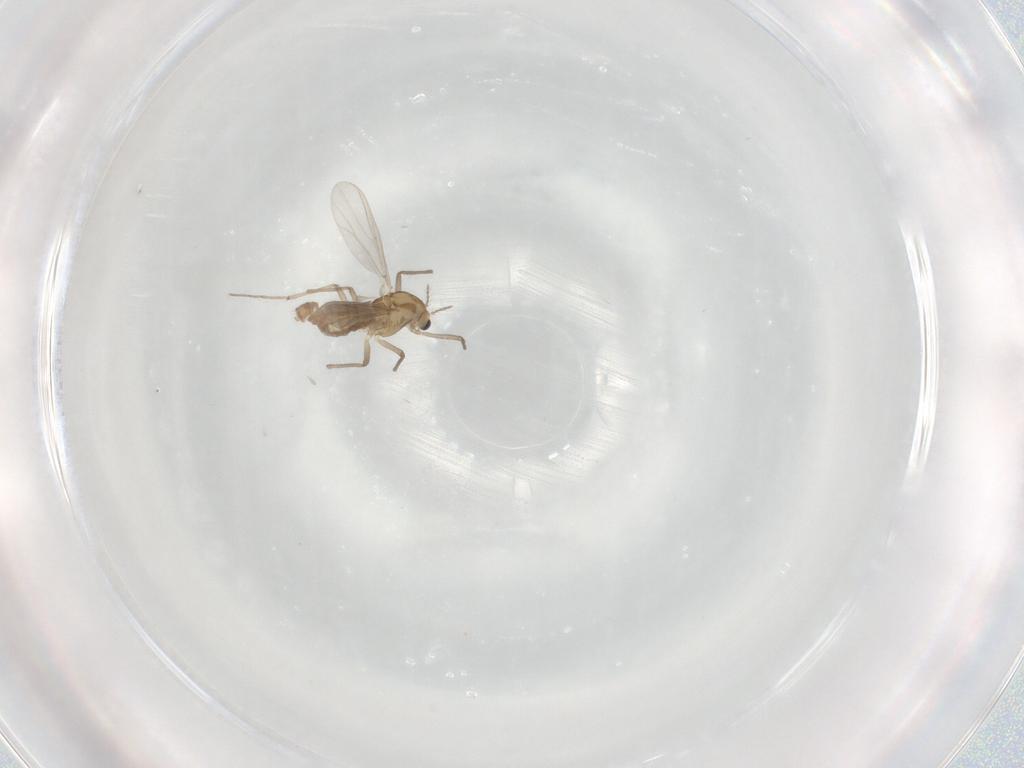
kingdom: Animalia
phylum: Arthropoda
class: Insecta
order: Diptera
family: Chironomidae
